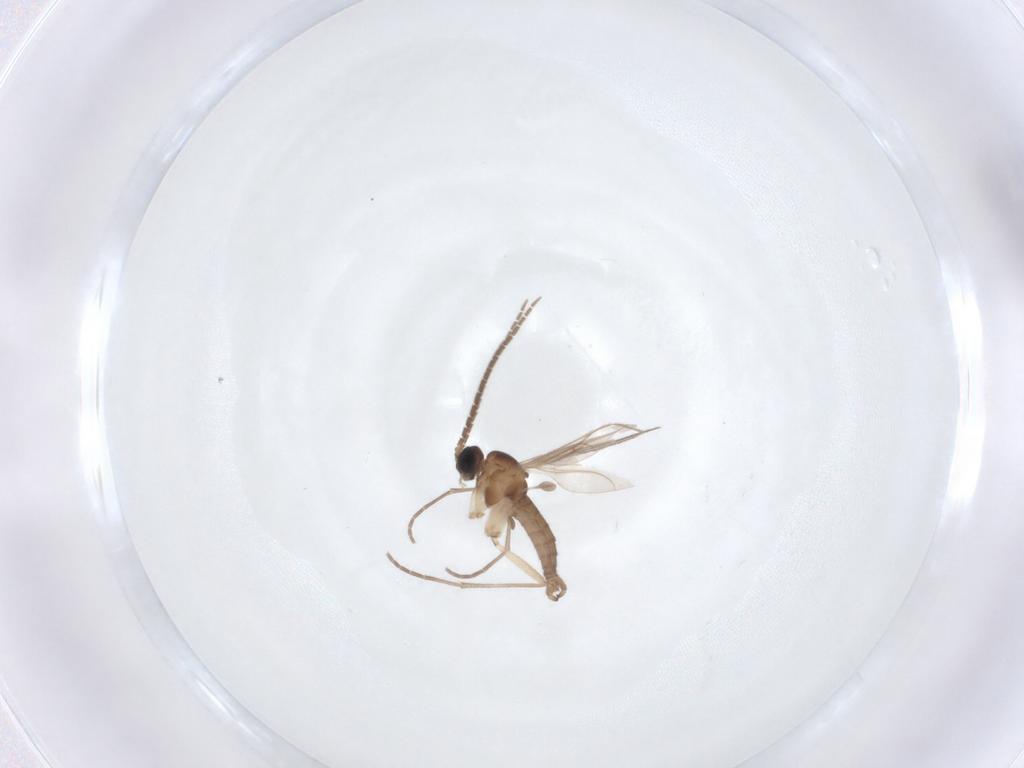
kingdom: Animalia
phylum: Arthropoda
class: Insecta
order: Diptera
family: Sciaridae
